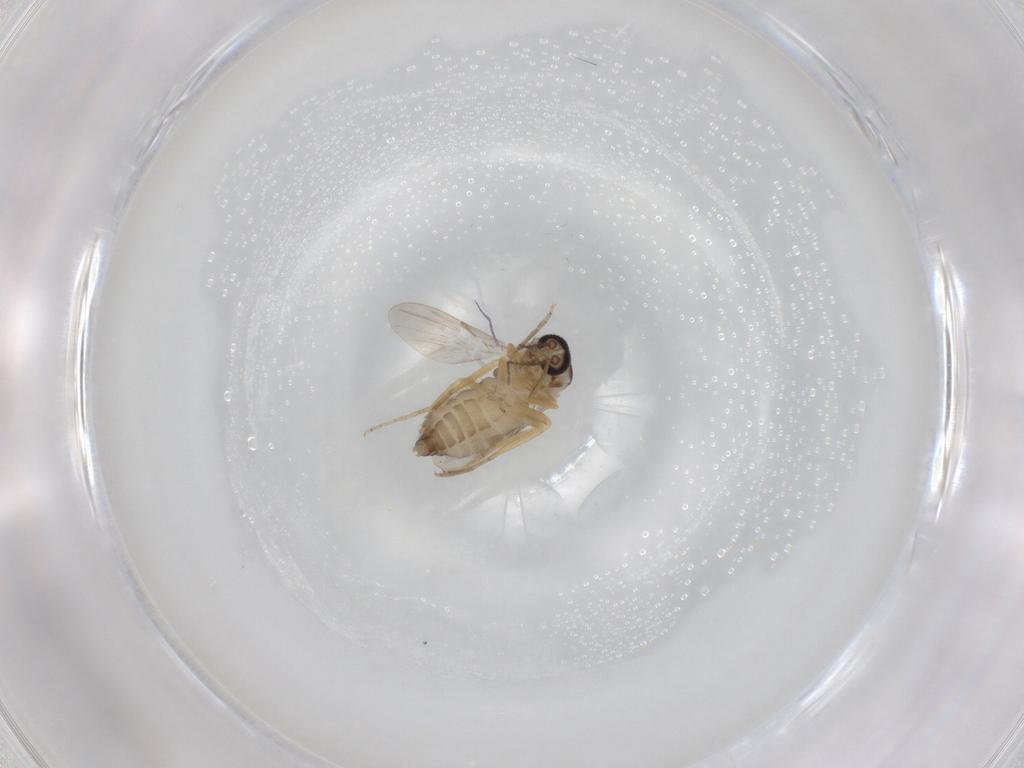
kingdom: Animalia
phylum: Arthropoda
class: Insecta
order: Diptera
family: Ceratopogonidae
